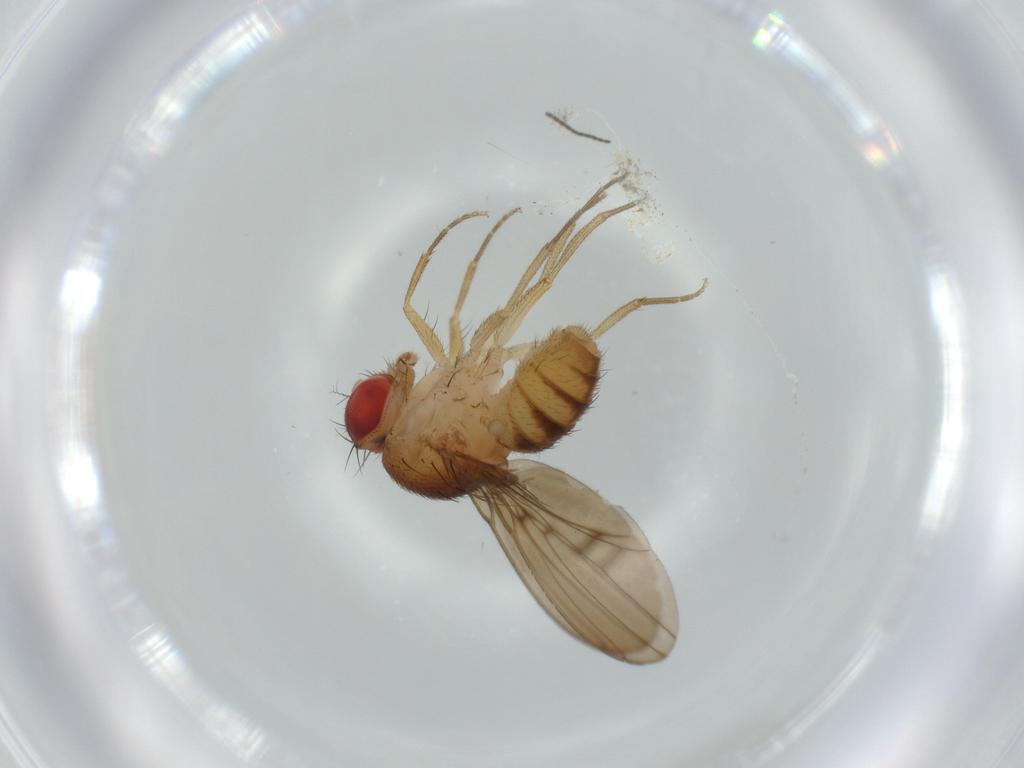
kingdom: Animalia
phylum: Arthropoda
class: Insecta
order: Diptera
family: Drosophilidae
